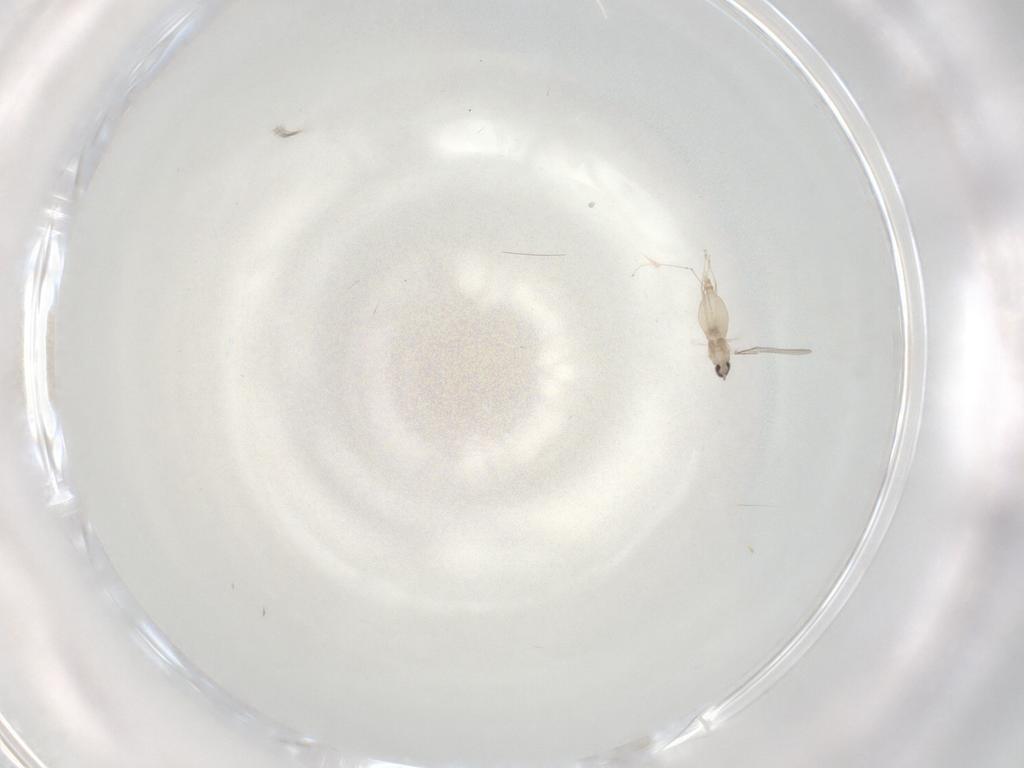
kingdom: Animalia
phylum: Arthropoda
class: Insecta
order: Diptera
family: Cecidomyiidae
